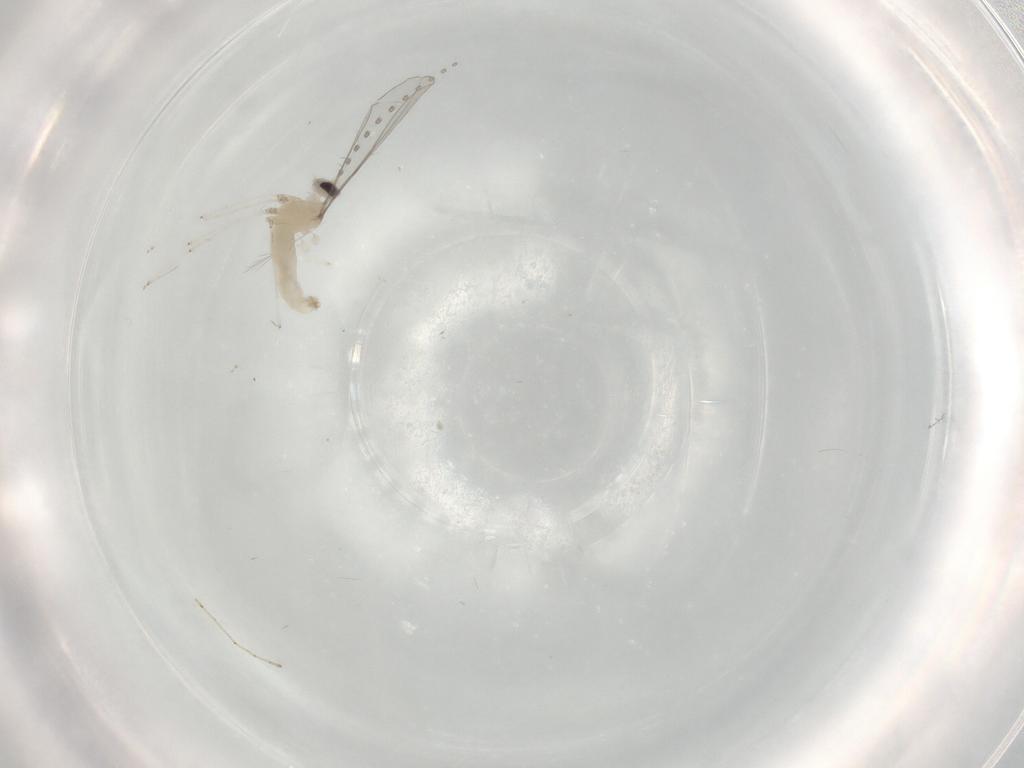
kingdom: Animalia
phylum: Arthropoda
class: Insecta
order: Diptera
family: Cecidomyiidae
